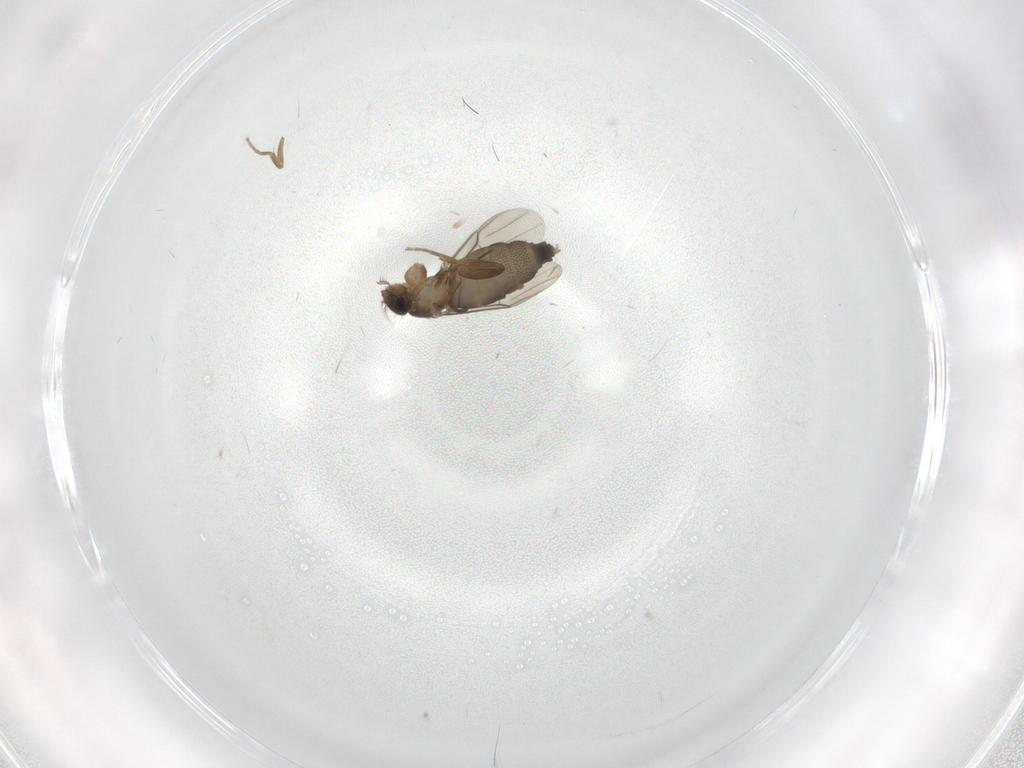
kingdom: Animalia
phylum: Arthropoda
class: Insecta
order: Diptera
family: Phoridae
